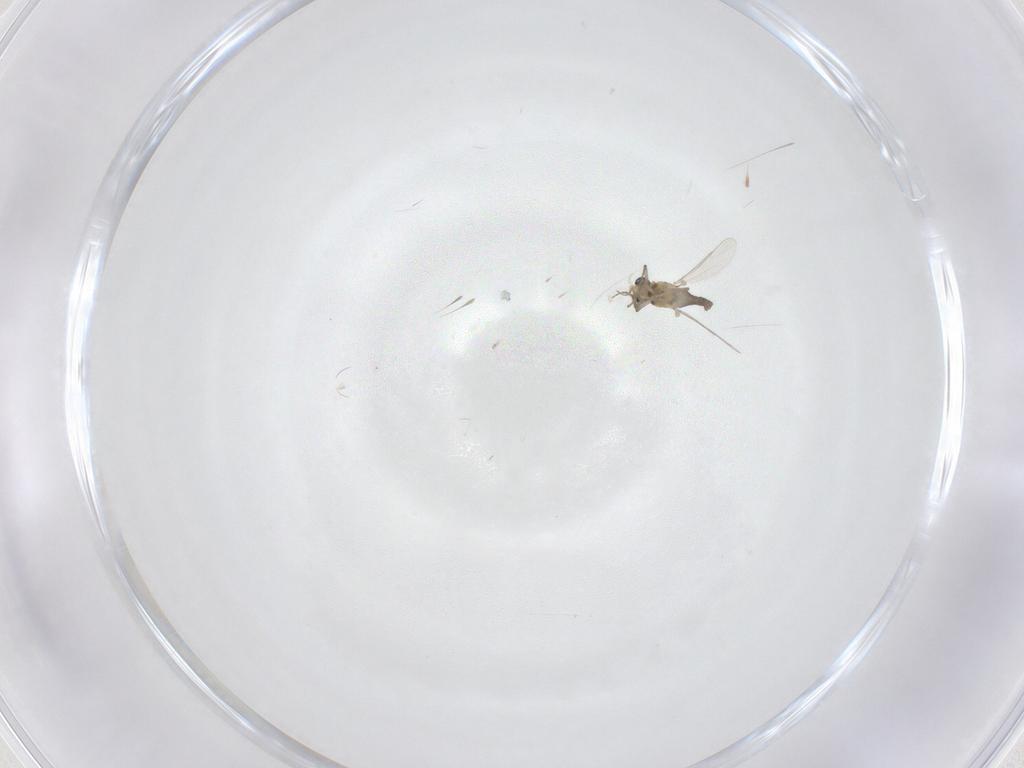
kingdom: Animalia
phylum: Arthropoda
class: Insecta
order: Diptera
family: Chironomidae
